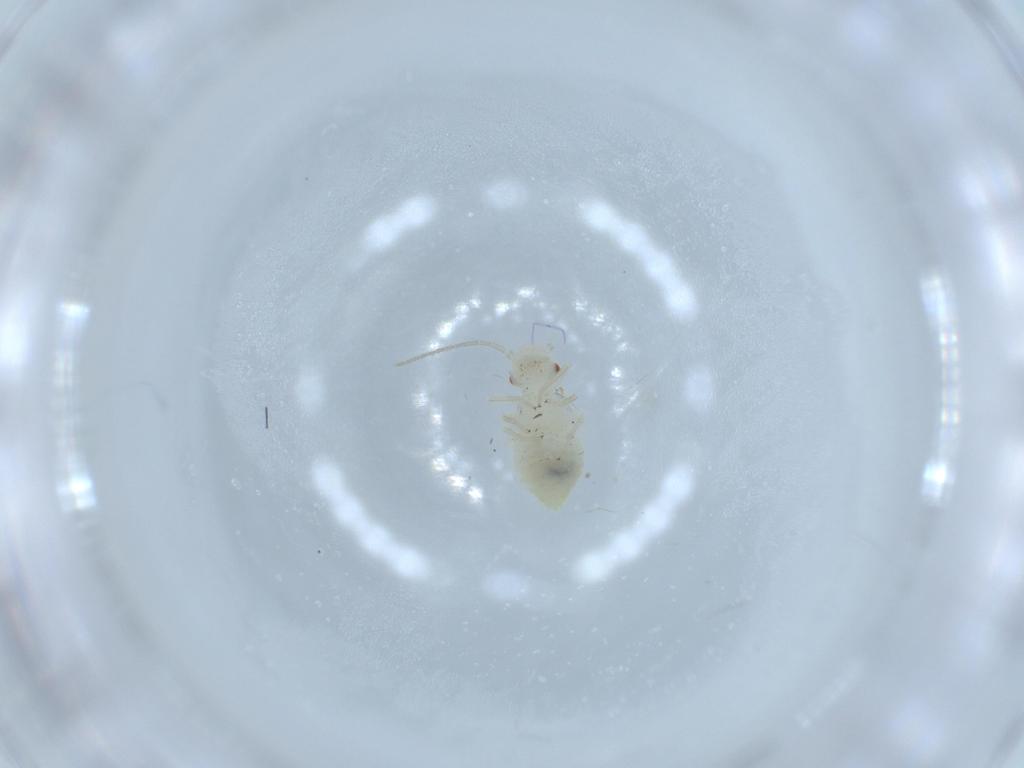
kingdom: Animalia
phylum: Arthropoda
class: Insecta
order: Psocodea
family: Caeciliusidae
